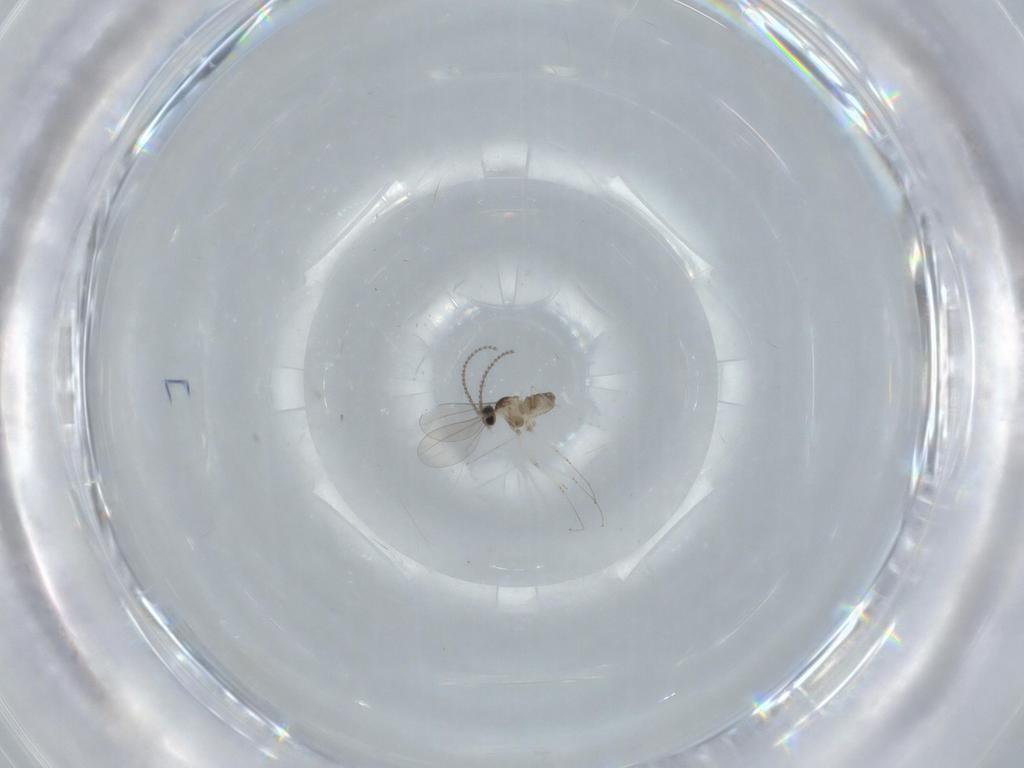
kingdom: Animalia
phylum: Arthropoda
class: Insecta
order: Diptera
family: Cecidomyiidae
